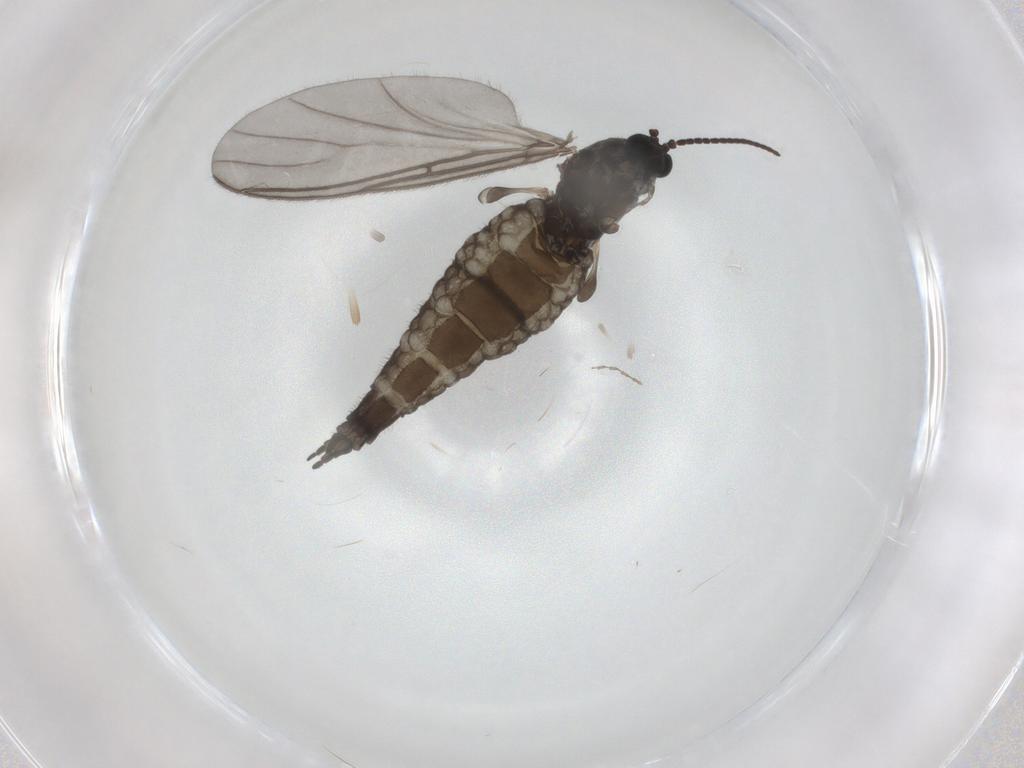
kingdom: Animalia
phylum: Arthropoda
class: Insecta
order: Diptera
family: Sciaridae
